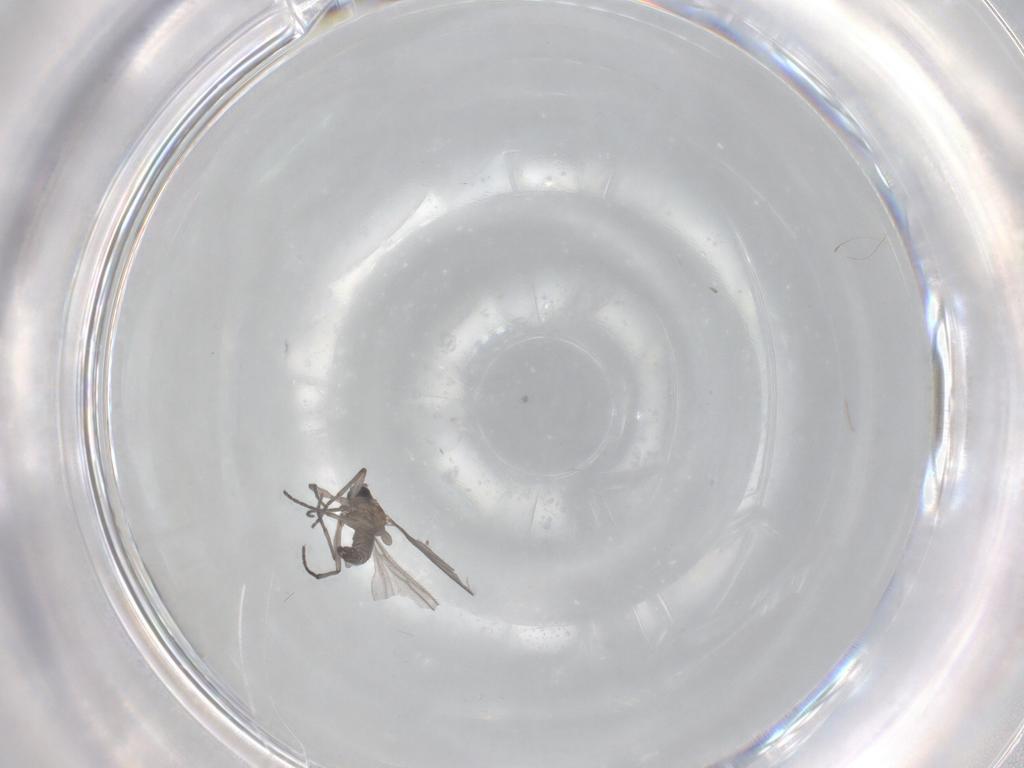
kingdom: Animalia
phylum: Arthropoda
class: Insecta
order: Diptera
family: Sciaridae
